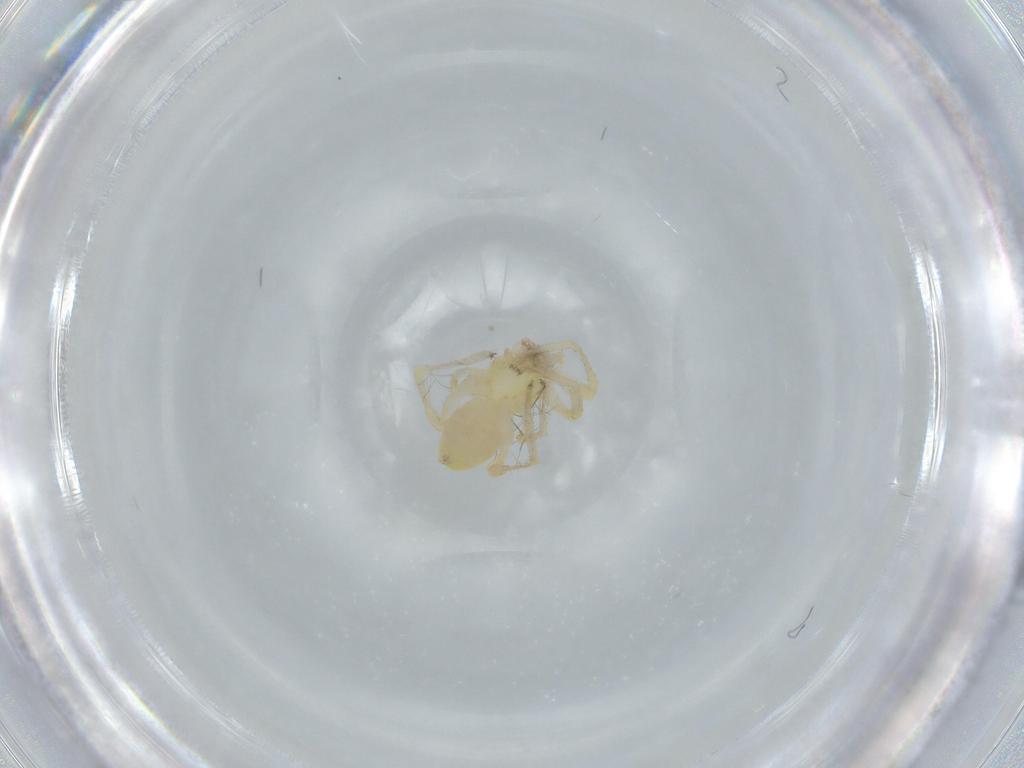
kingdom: Animalia
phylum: Arthropoda
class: Arachnida
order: Araneae
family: Anyphaenidae
